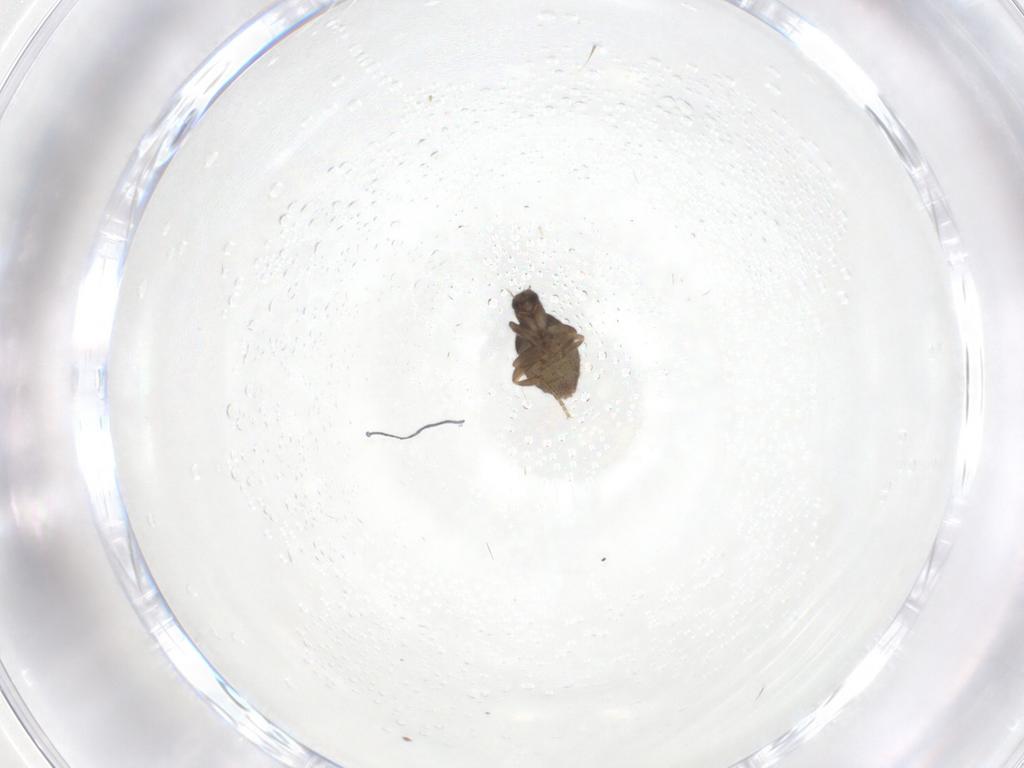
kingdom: Animalia
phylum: Arthropoda
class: Insecta
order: Diptera
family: Phoridae
